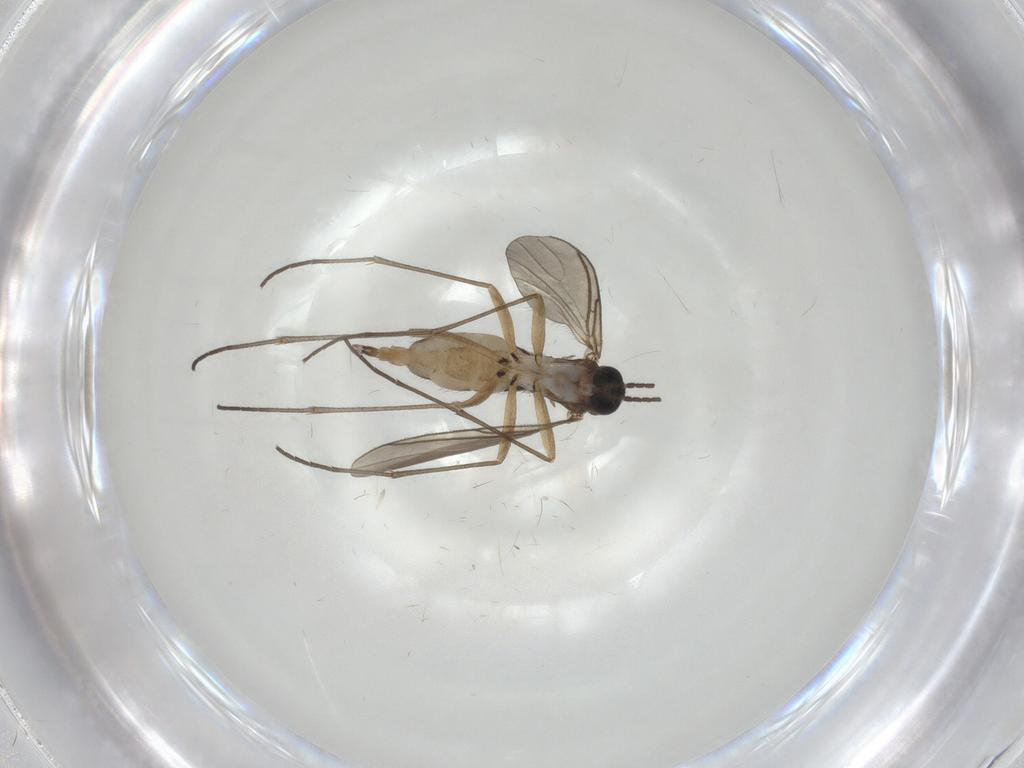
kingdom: Animalia
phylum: Arthropoda
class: Insecta
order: Diptera
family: Sciaridae
